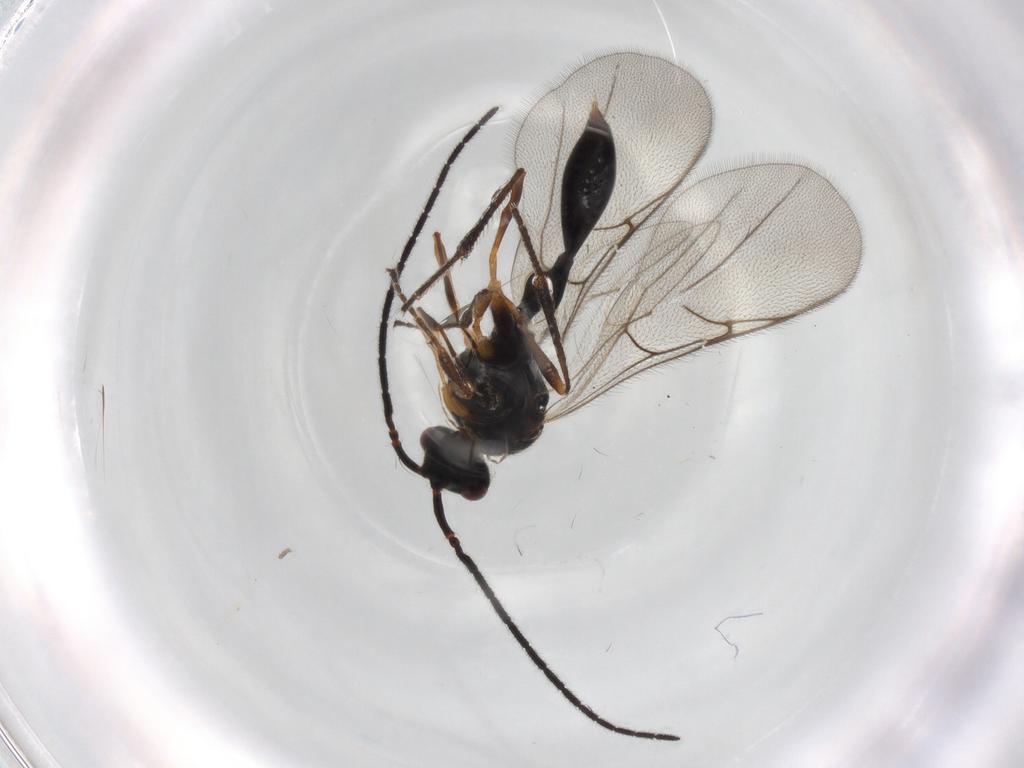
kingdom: Animalia
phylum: Arthropoda
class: Insecta
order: Hymenoptera
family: Diapriidae
